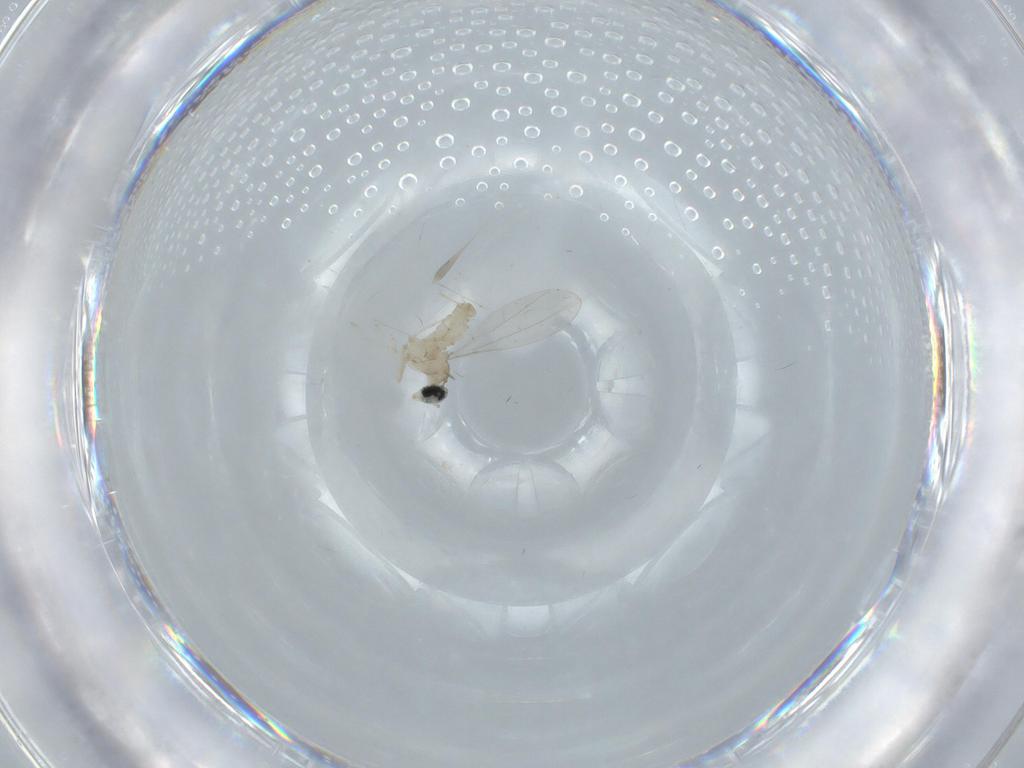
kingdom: Animalia
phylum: Arthropoda
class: Insecta
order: Diptera
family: Cecidomyiidae
